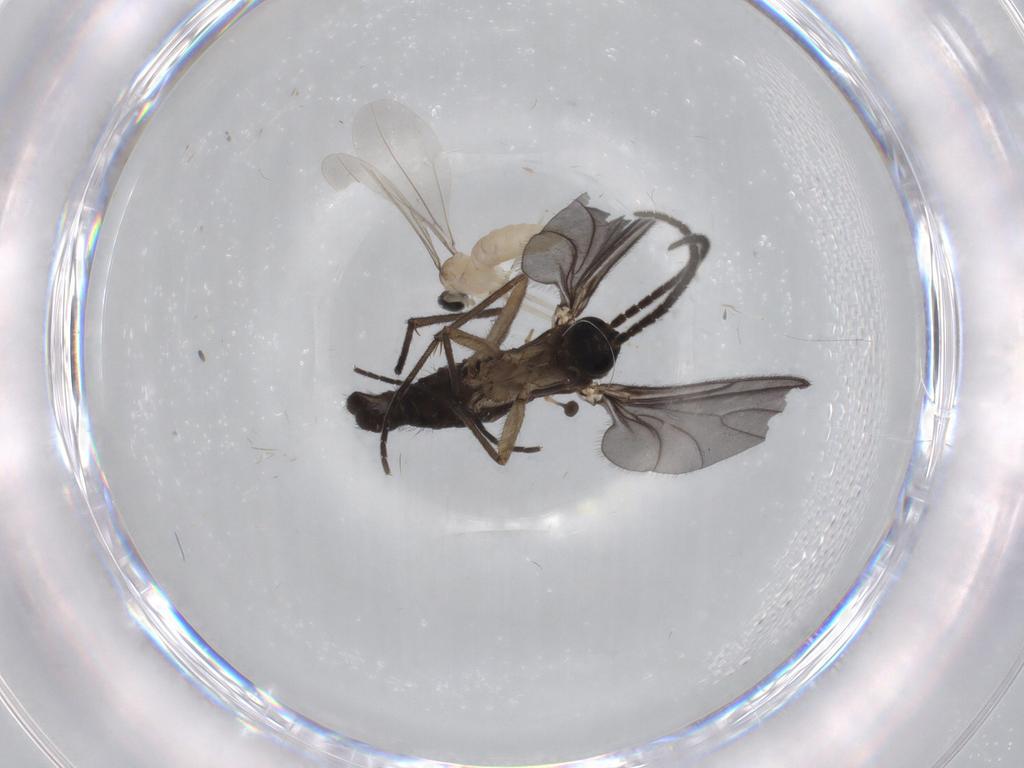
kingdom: Animalia
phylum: Arthropoda
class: Insecta
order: Diptera
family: Sciaridae
